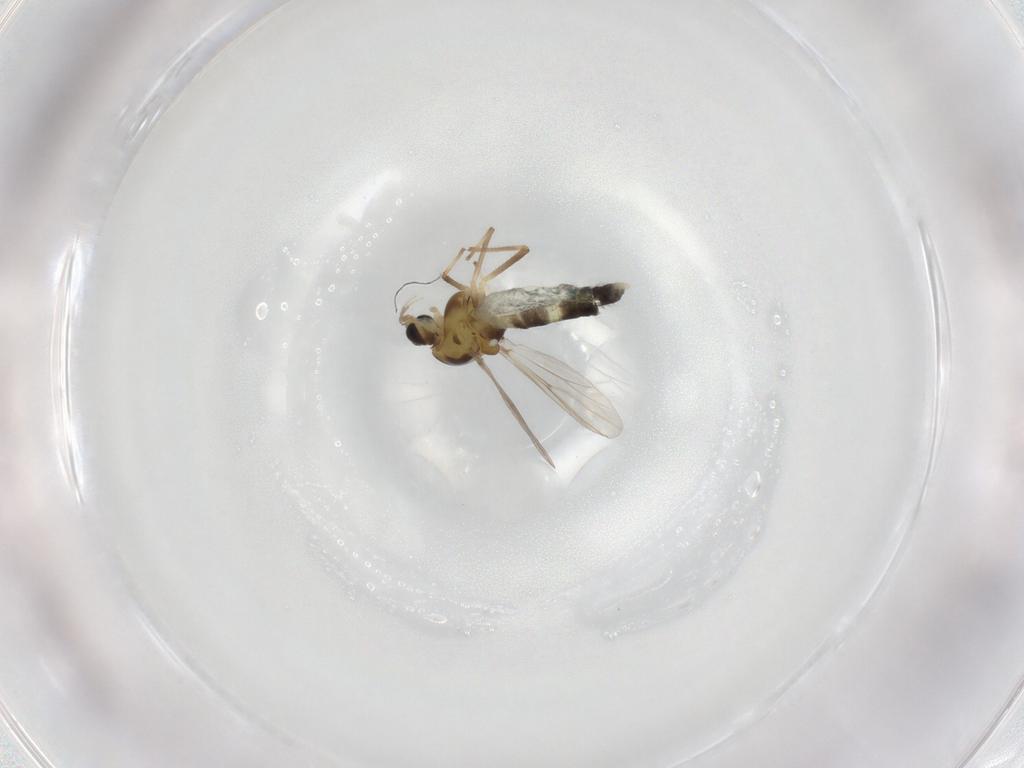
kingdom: Animalia
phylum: Arthropoda
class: Insecta
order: Diptera
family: Chironomidae
